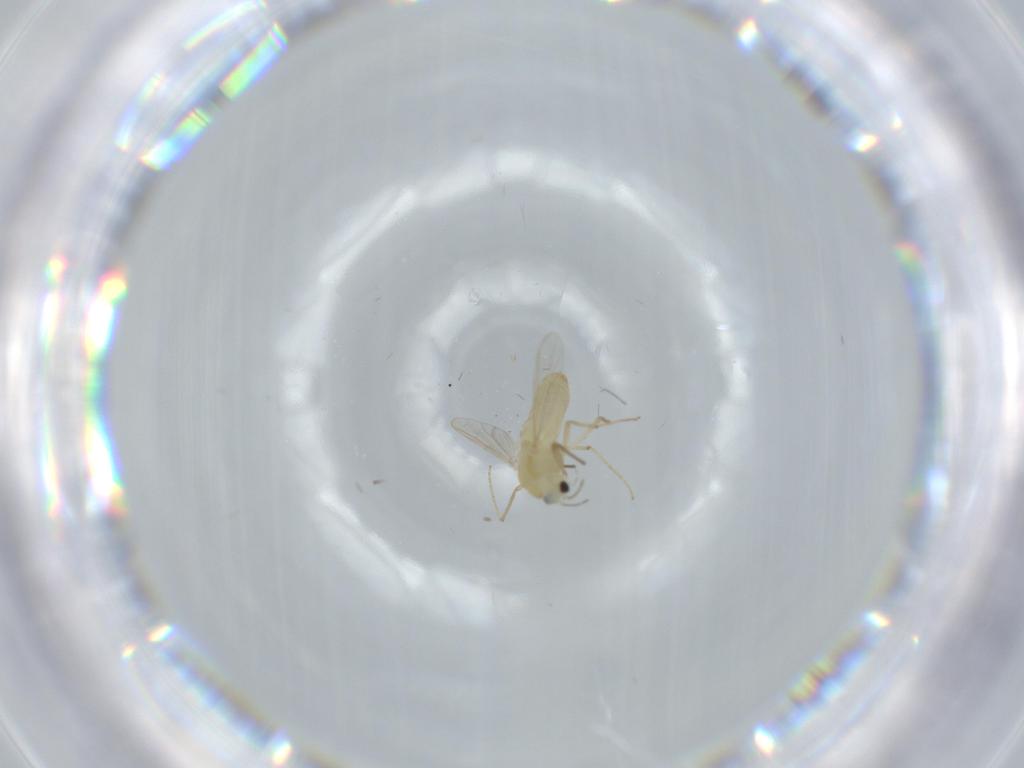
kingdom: Animalia
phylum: Arthropoda
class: Insecta
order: Diptera
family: Chironomidae
